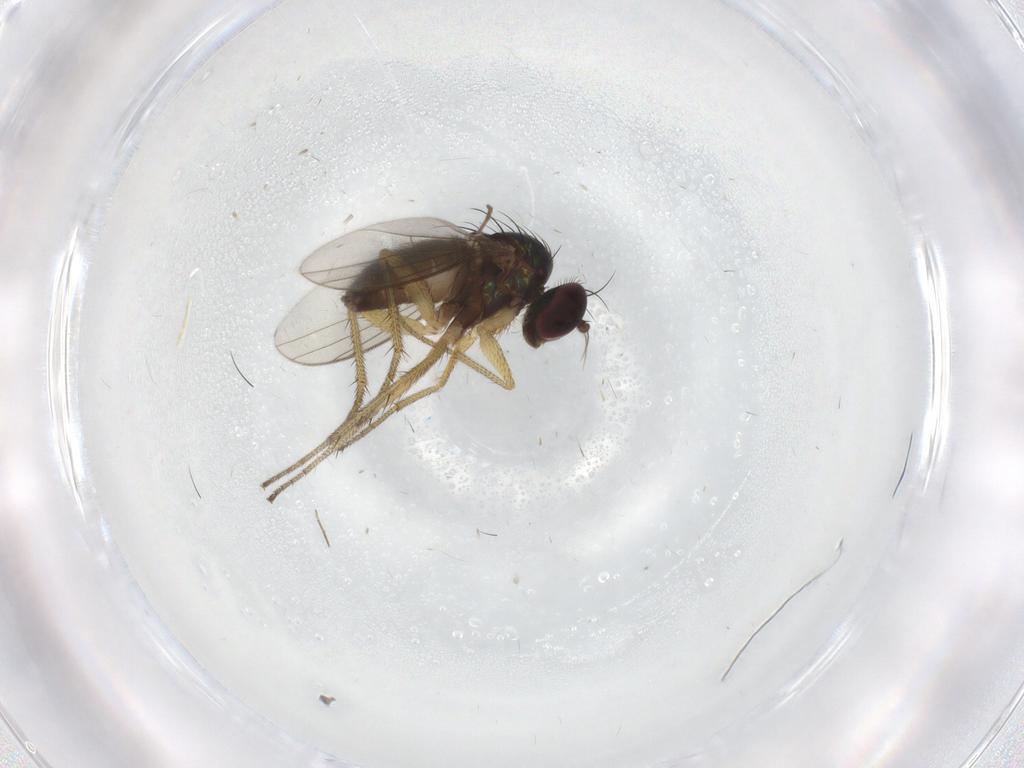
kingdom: Animalia
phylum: Arthropoda
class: Insecta
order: Diptera
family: Dolichopodidae
